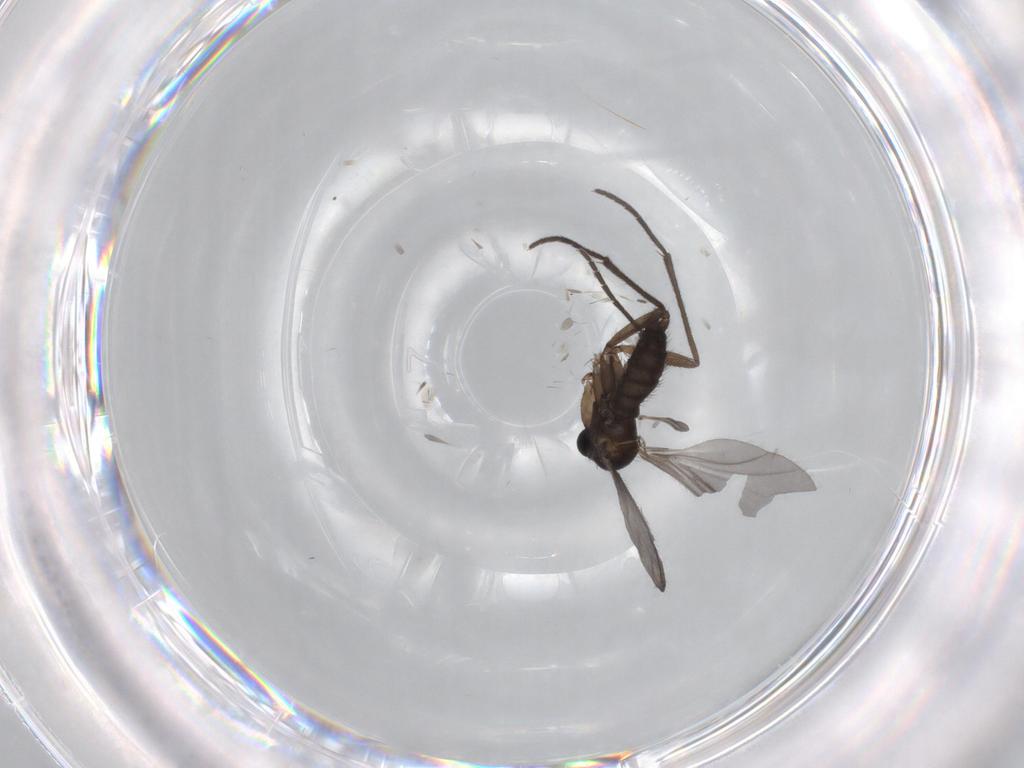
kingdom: Animalia
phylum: Arthropoda
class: Insecta
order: Diptera
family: Sciaridae
